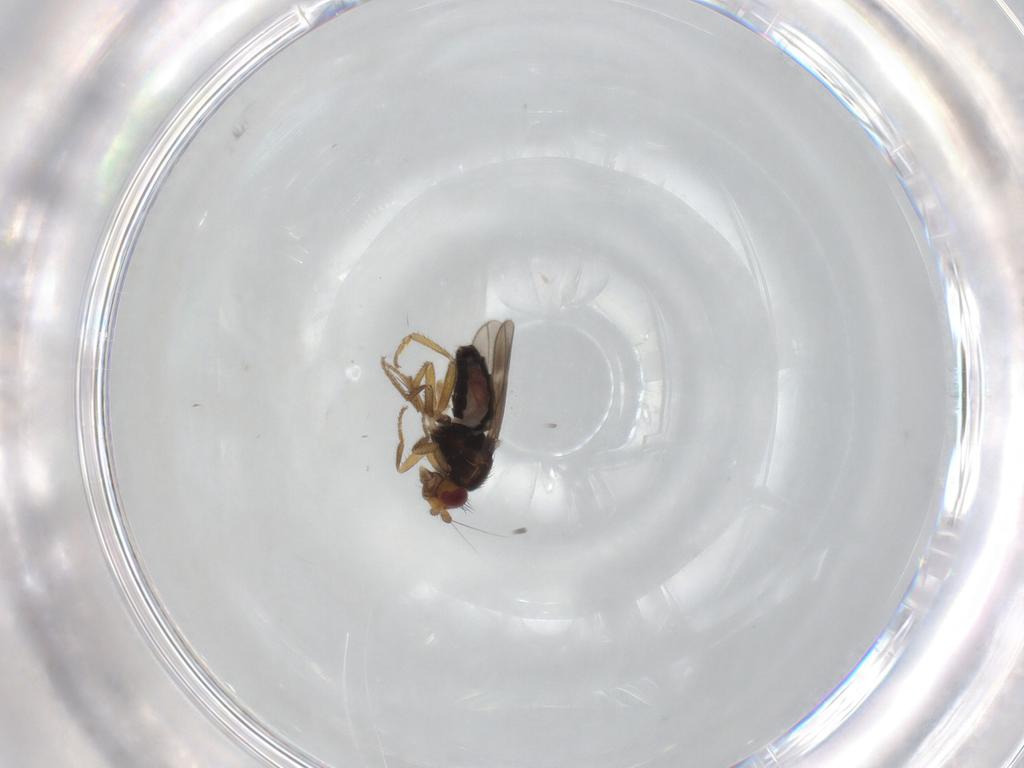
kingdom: Animalia
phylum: Arthropoda
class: Insecta
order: Diptera
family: Sphaeroceridae
